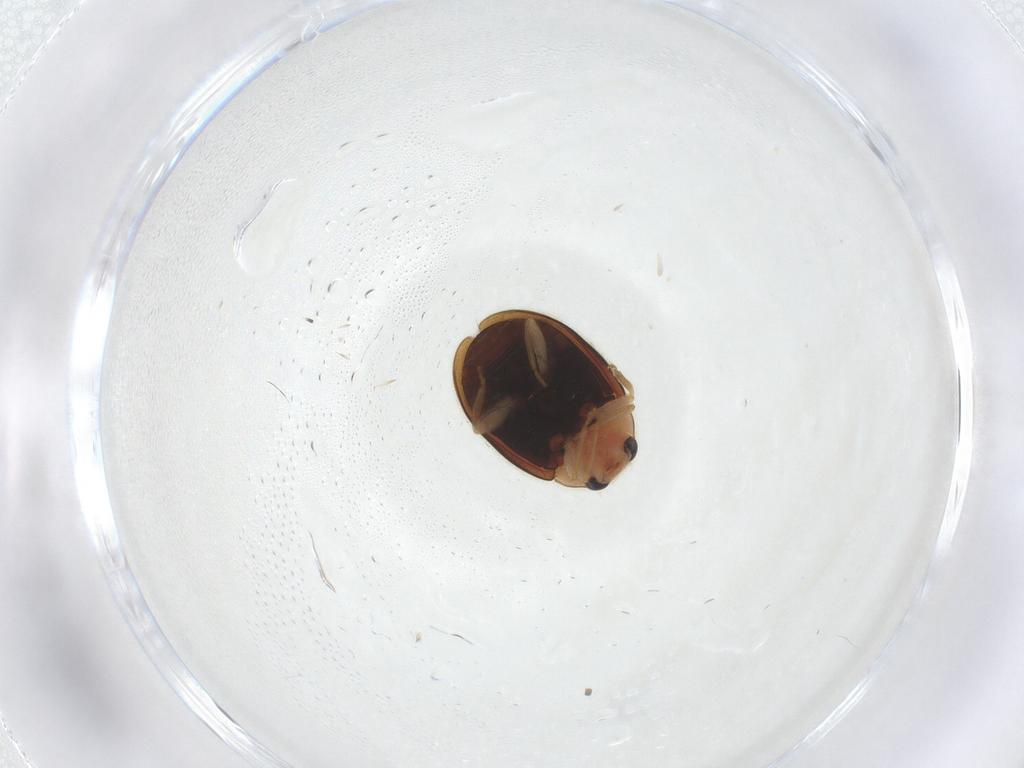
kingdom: Animalia
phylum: Arthropoda
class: Insecta
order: Coleoptera
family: Coccinellidae
